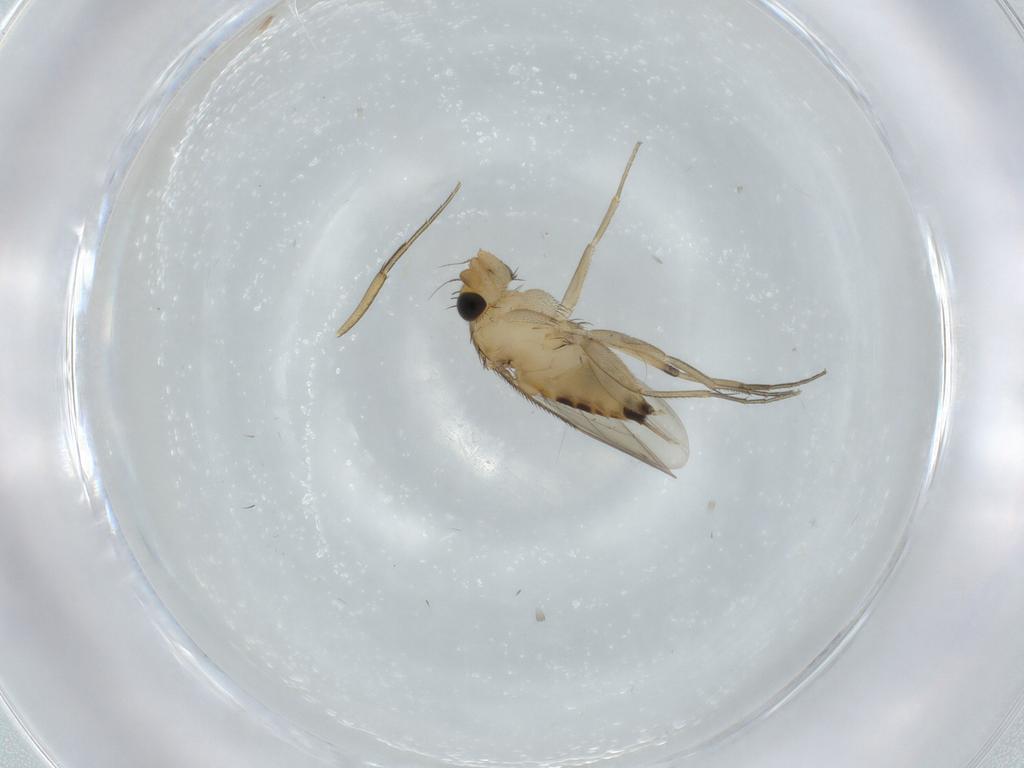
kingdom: Animalia
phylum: Arthropoda
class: Insecta
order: Diptera
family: Phoridae
